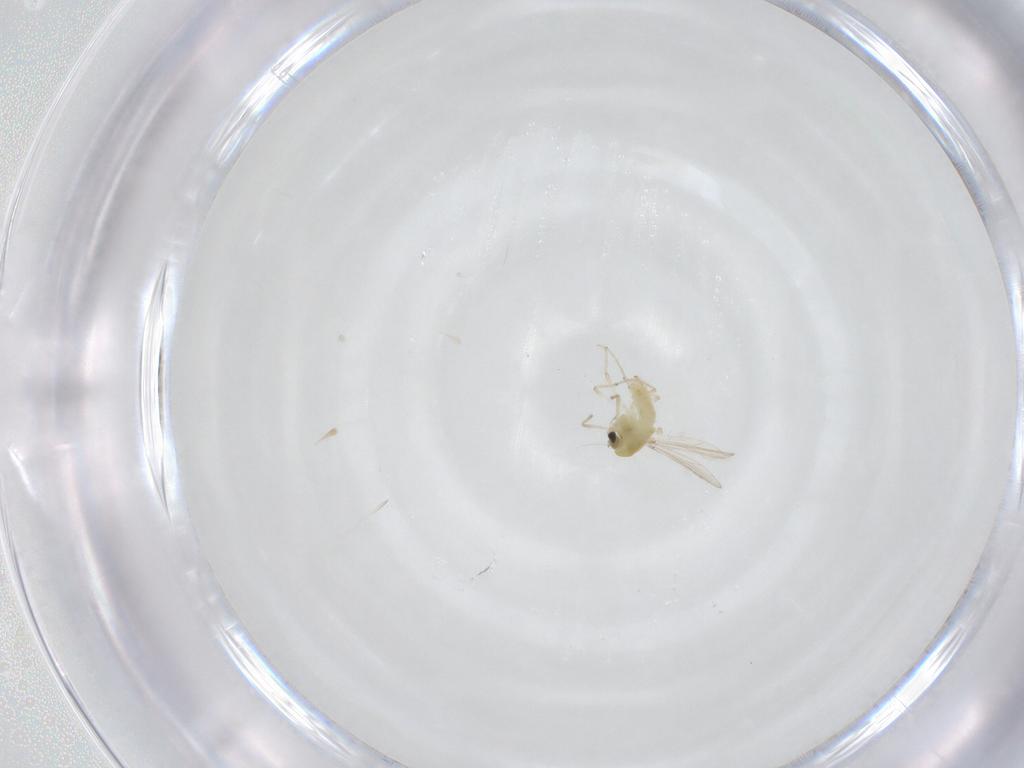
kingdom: Animalia
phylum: Arthropoda
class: Insecta
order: Diptera
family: Chironomidae
